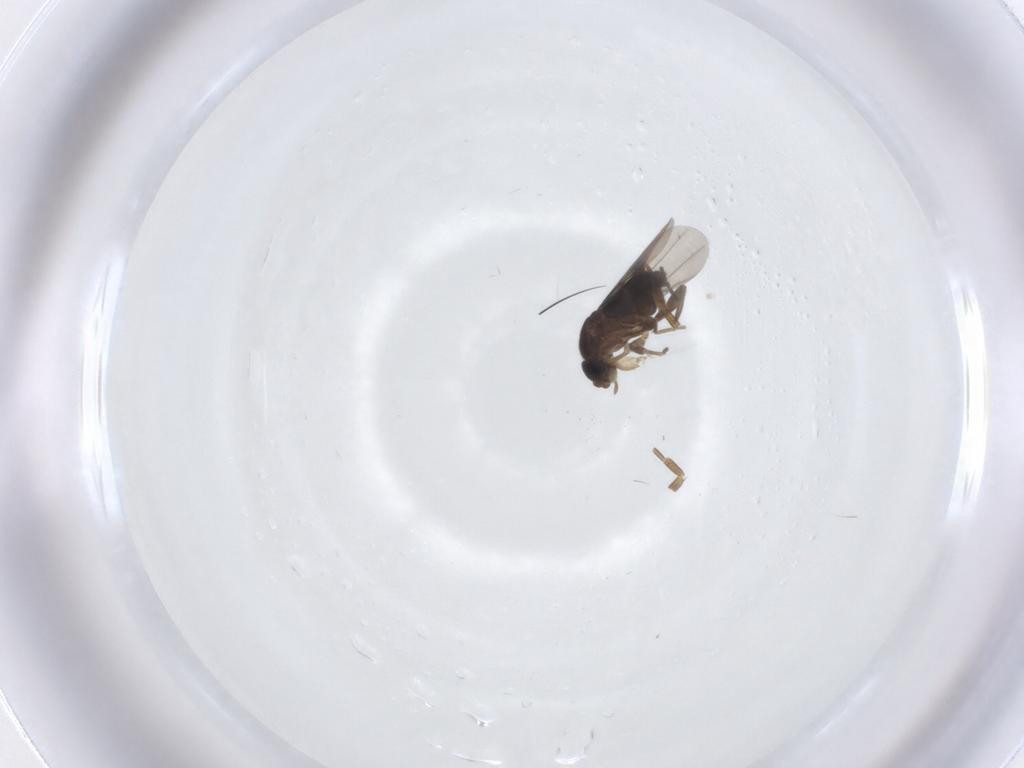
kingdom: Animalia
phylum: Arthropoda
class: Insecta
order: Diptera
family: Phoridae
